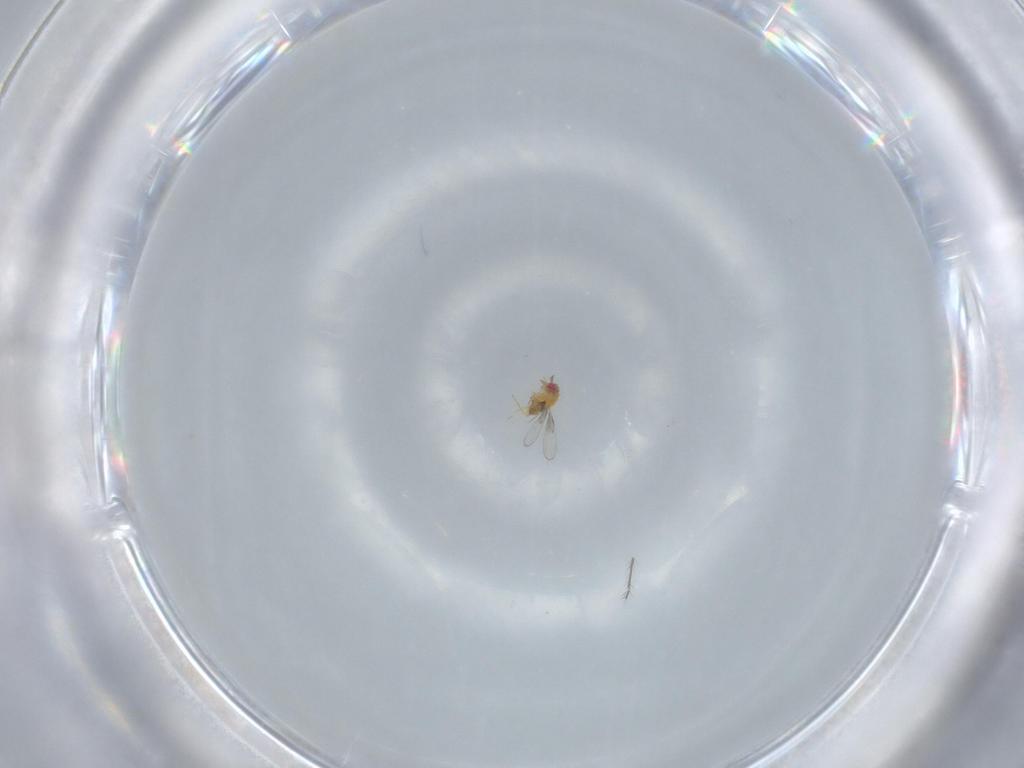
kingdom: Animalia
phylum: Arthropoda
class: Insecta
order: Hymenoptera
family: Trichogrammatidae
